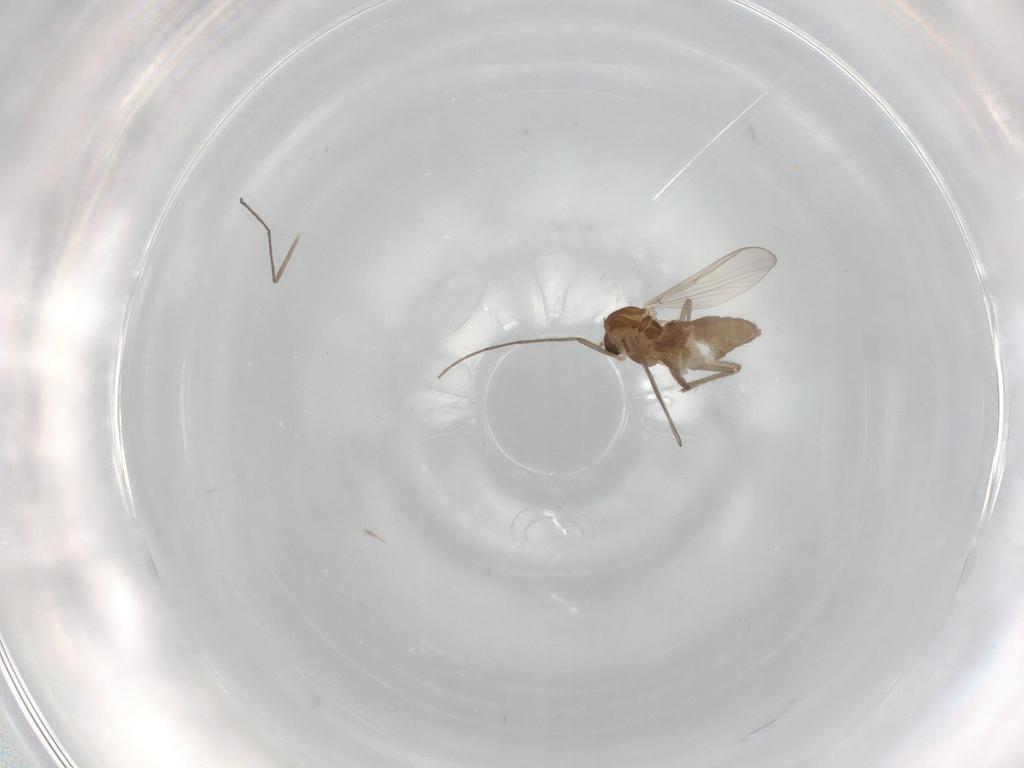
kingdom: Animalia
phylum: Arthropoda
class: Insecta
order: Diptera
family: Chironomidae
